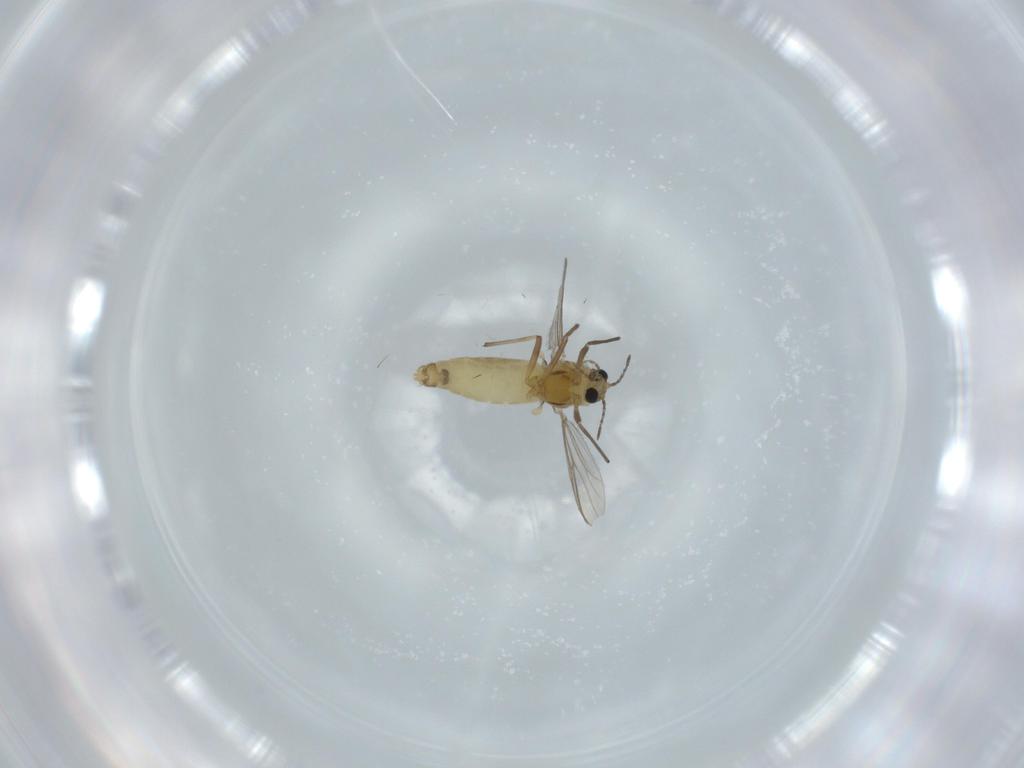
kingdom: Animalia
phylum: Arthropoda
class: Insecta
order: Diptera
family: Chironomidae
